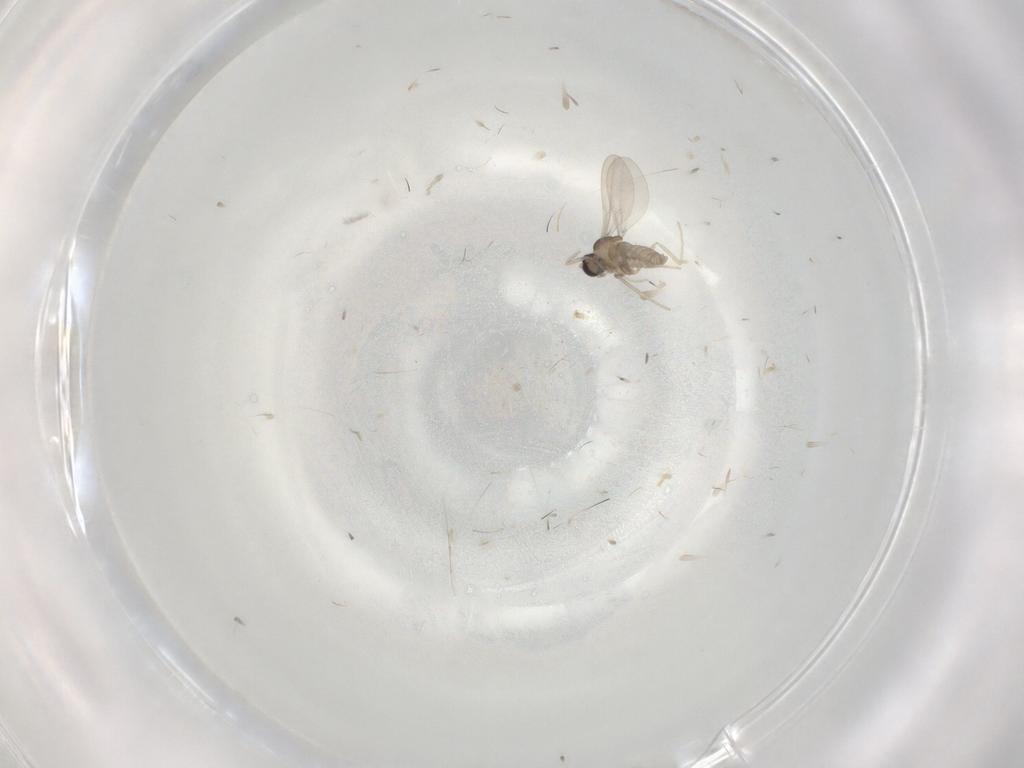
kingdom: Animalia
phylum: Arthropoda
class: Insecta
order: Diptera
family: Cecidomyiidae
